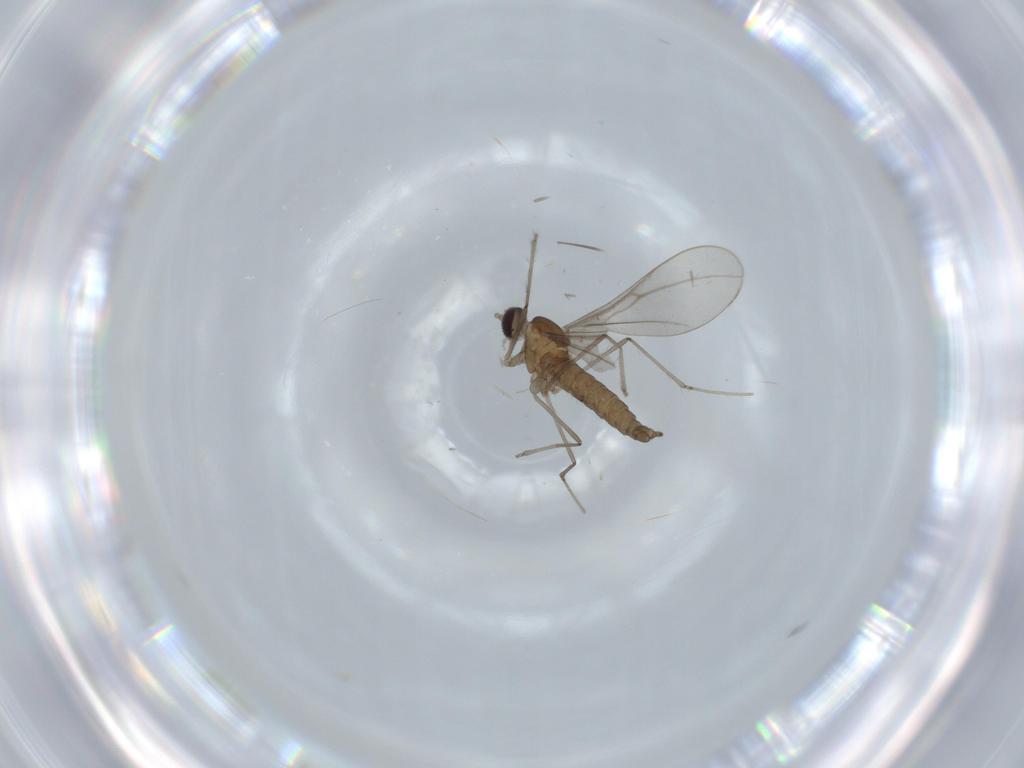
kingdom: Animalia
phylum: Arthropoda
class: Insecta
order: Diptera
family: Cecidomyiidae
